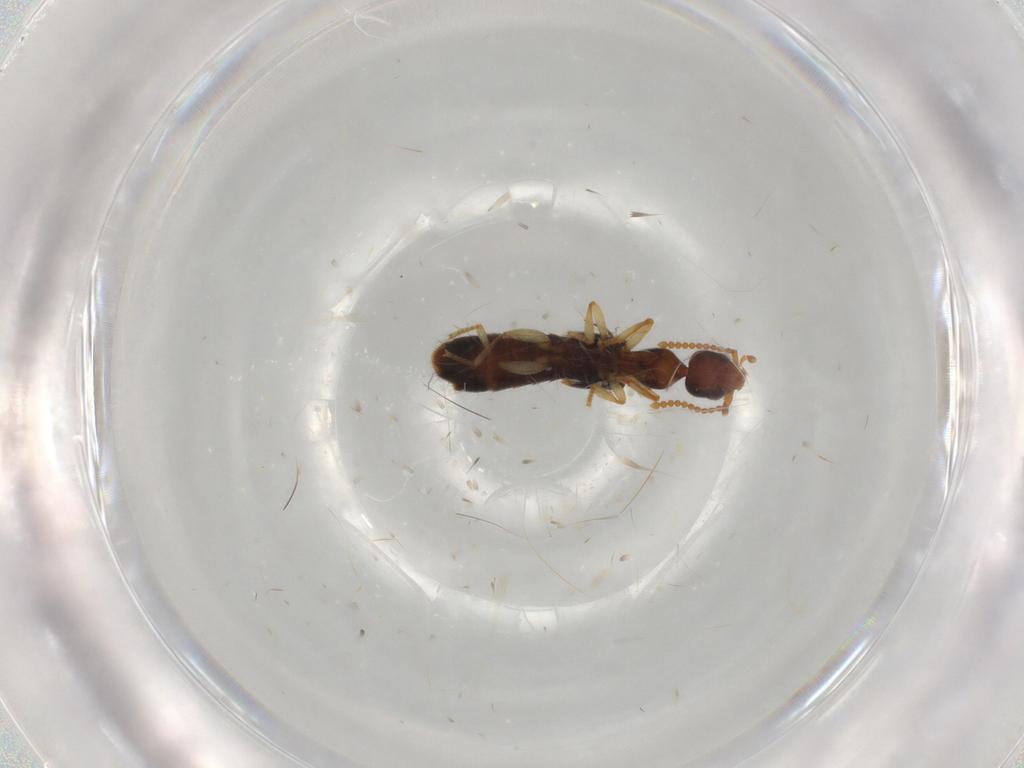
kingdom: Animalia
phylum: Arthropoda
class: Insecta
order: Coleoptera
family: Staphylinidae
